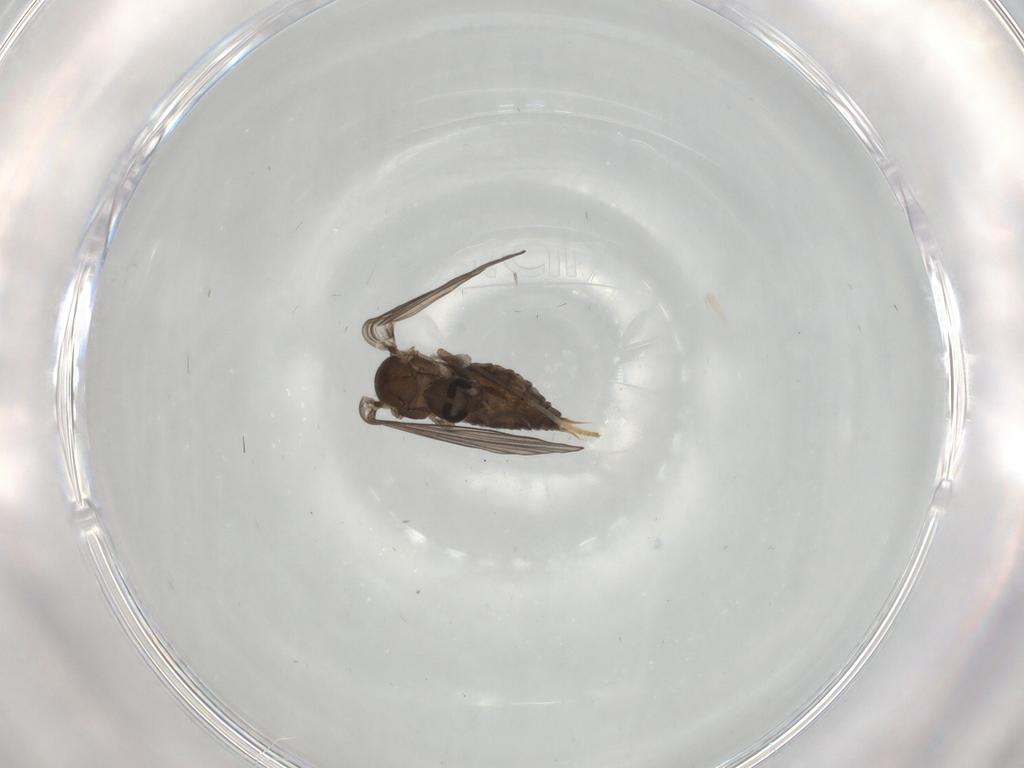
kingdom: Animalia
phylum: Arthropoda
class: Insecta
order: Diptera
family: Psychodidae
